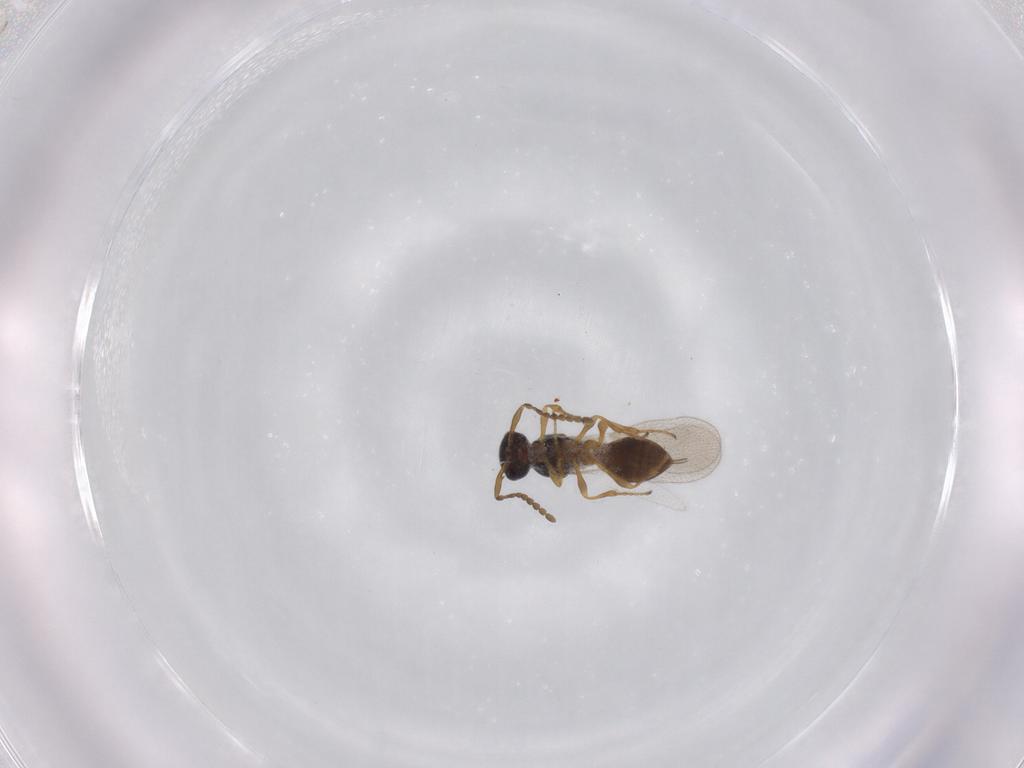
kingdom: Animalia
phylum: Arthropoda
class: Insecta
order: Diptera
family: Mythicomyiidae
